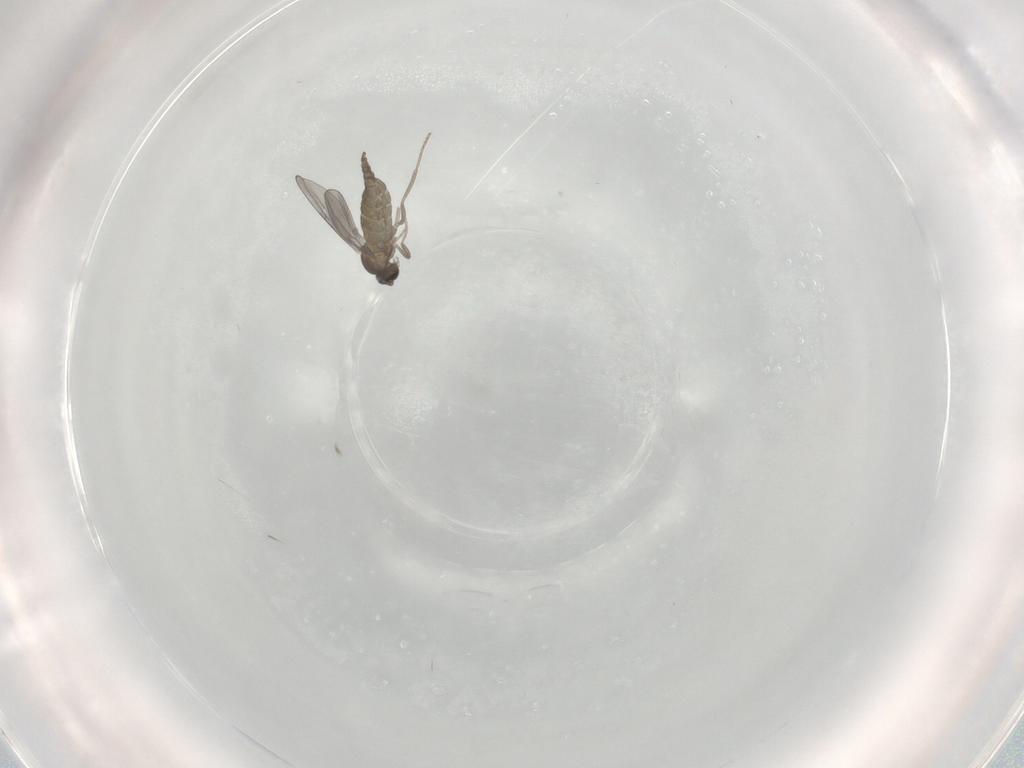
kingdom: Animalia
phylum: Arthropoda
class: Insecta
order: Diptera
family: Cecidomyiidae
